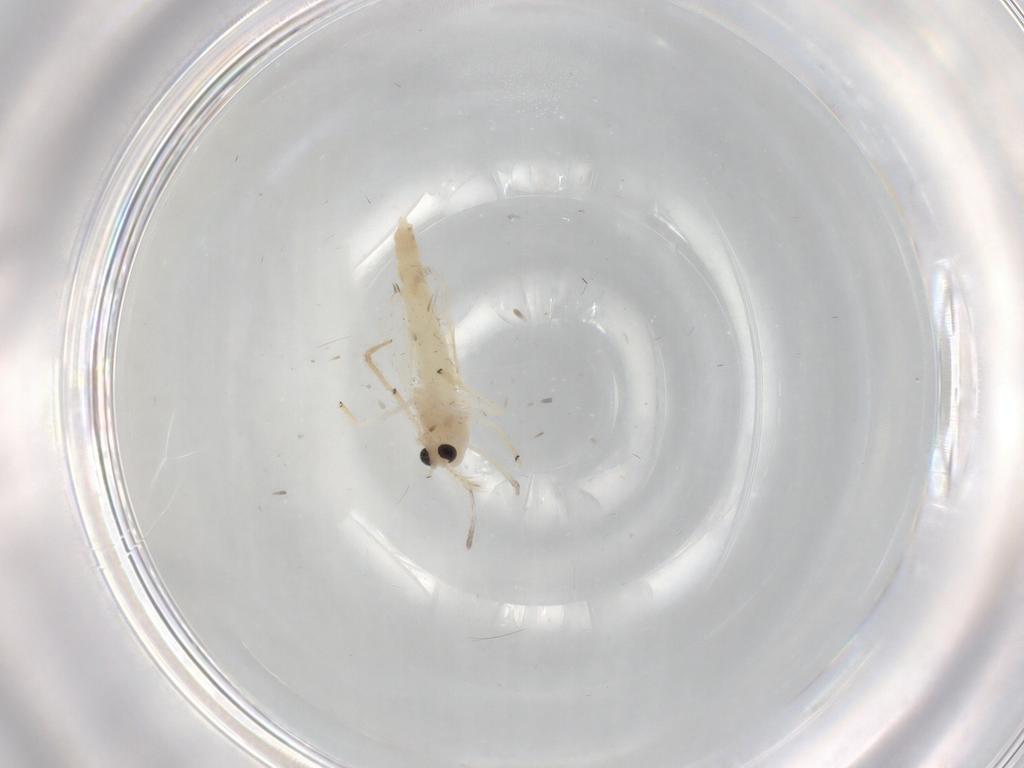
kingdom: Animalia
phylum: Arthropoda
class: Insecta
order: Diptera
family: Chironomidae
